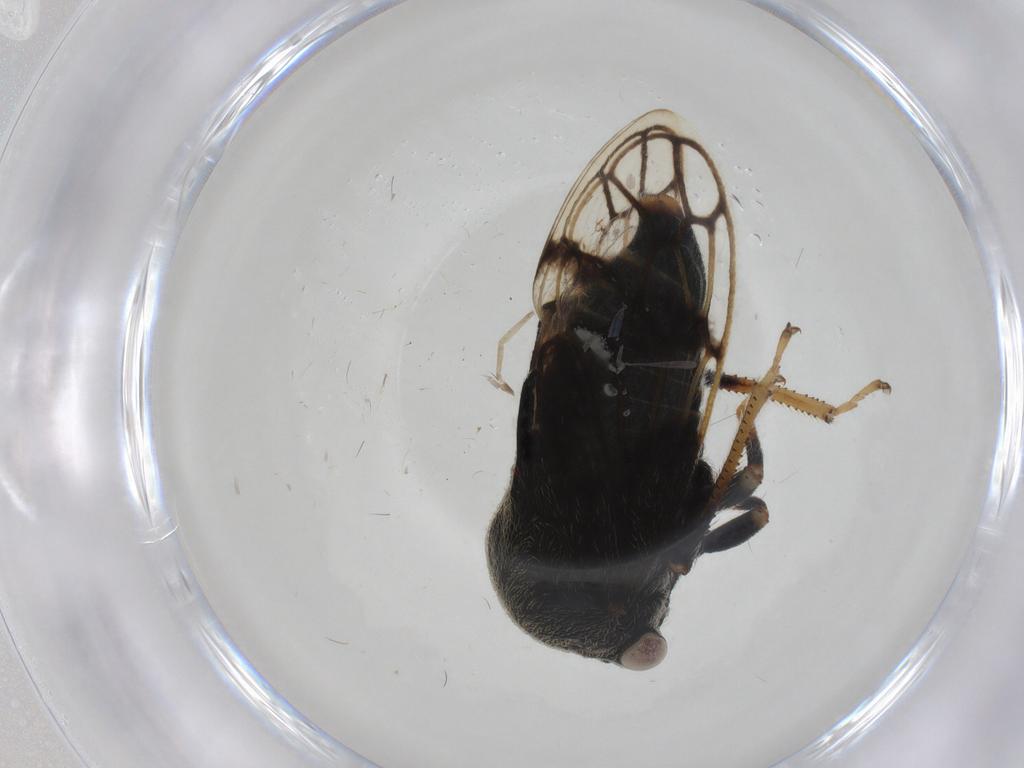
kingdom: Animalia
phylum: Arthropoda
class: Insecta
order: Hemiptera
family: Aleyrodidae
